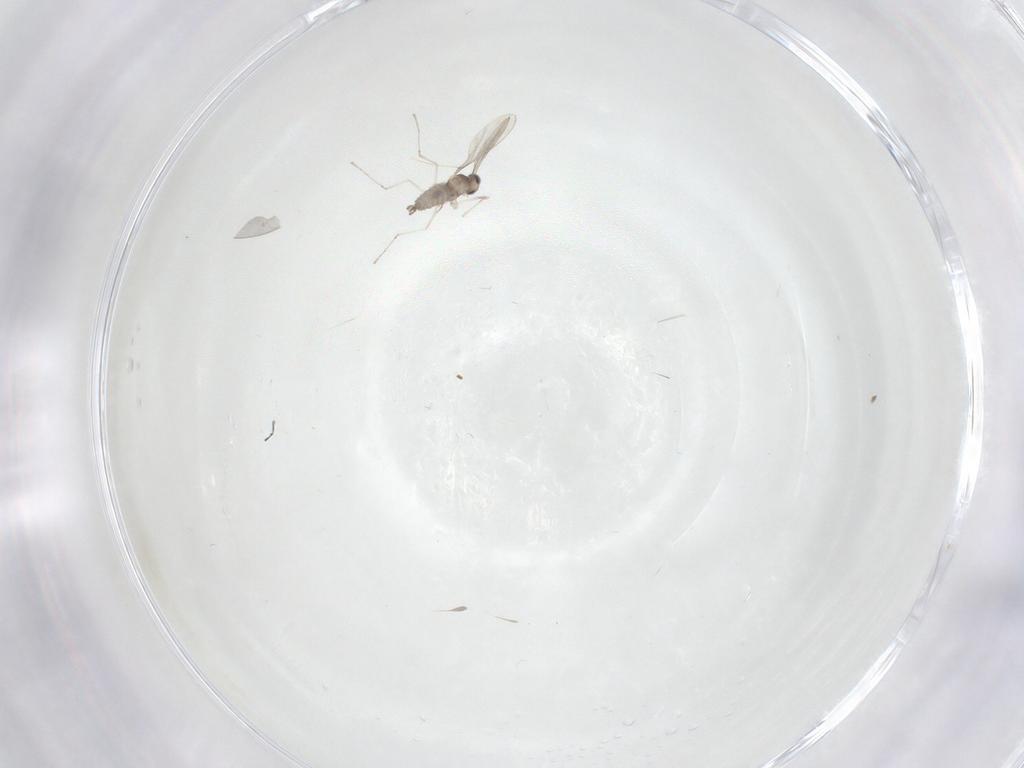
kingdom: Animalia
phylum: Arthropoda
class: Insecta
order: Diptera
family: Cecidomyiidae
